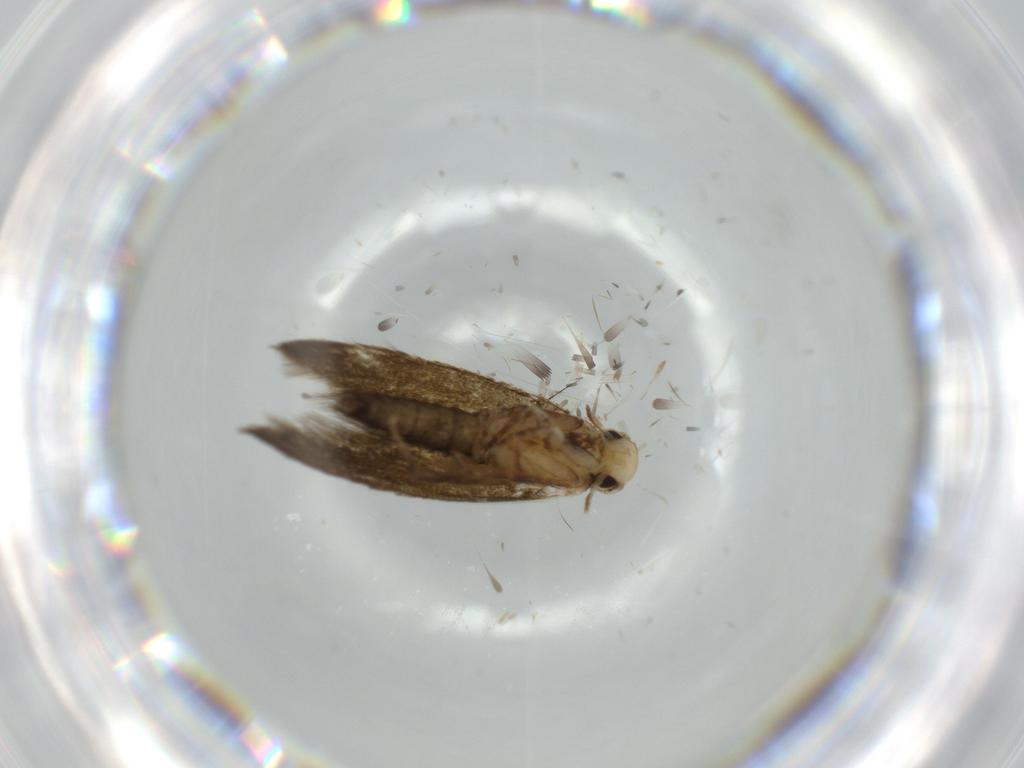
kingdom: Animalia
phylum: Arthropoda
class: Insecta
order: Lepidoptera
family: Tineidae
